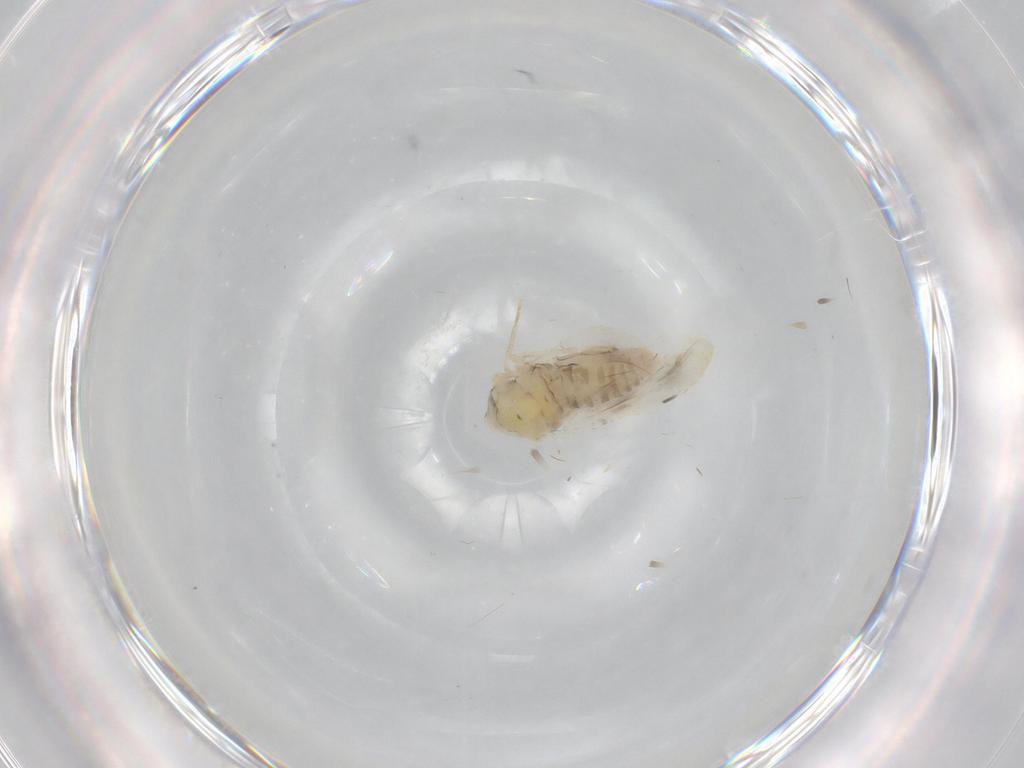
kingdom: Animalia
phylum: Arthropoda
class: Insecta
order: Hemiptera
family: Aleyrodidae
